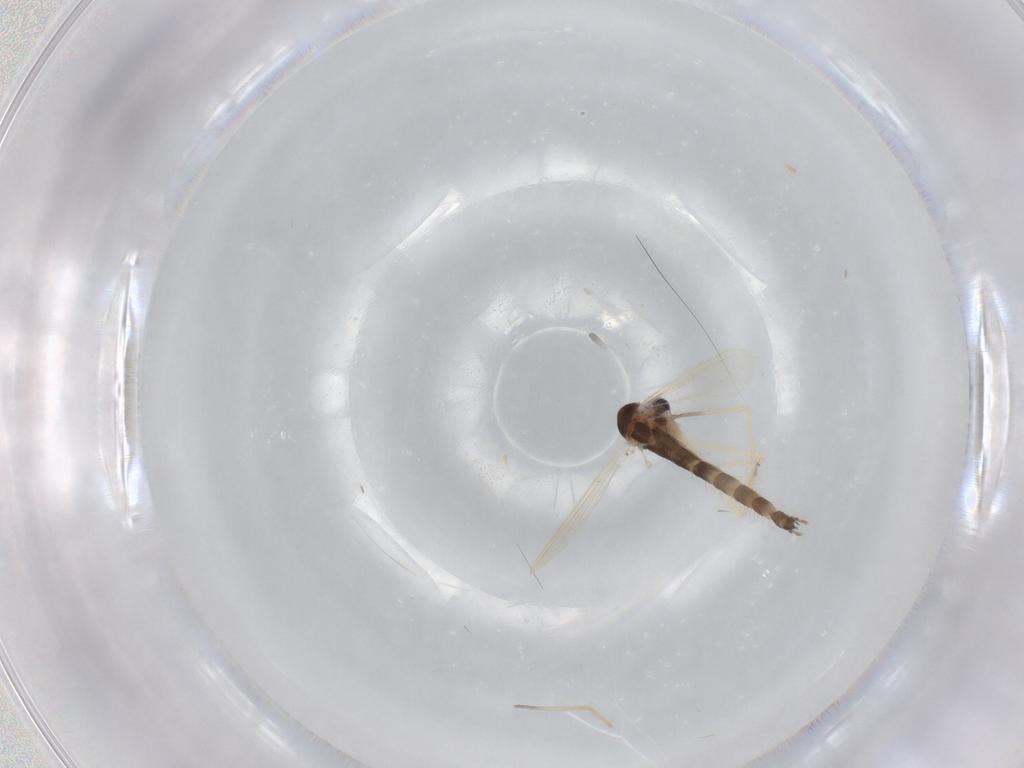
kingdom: Animalia
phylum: Arthropoda
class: Insecta
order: Diptera
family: Chironomidae
